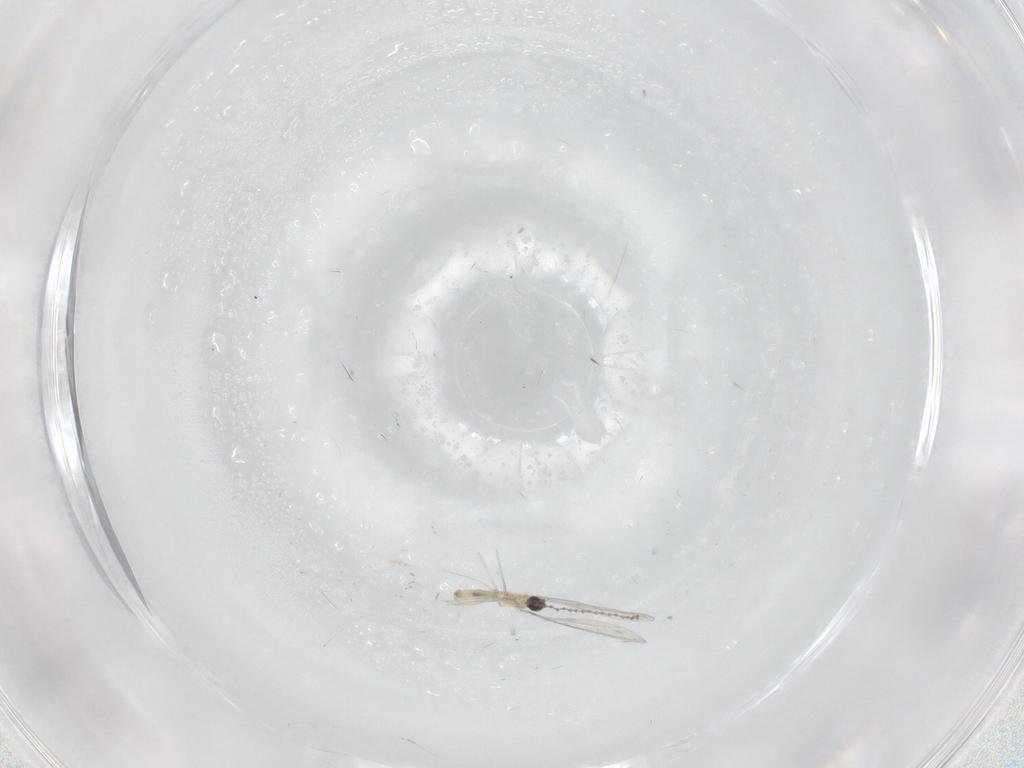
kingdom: Animalia
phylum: Arthropoda
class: Insecta
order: Diptera
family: Cecidomyiidae
